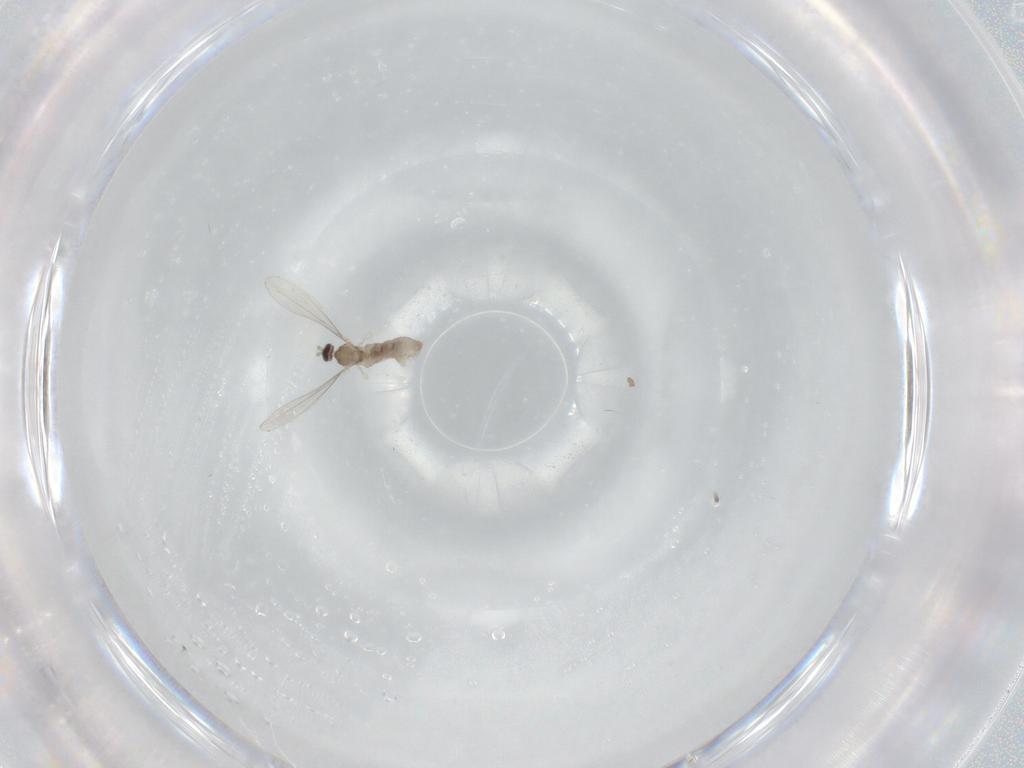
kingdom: Animalia
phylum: Arthropoda
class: Insecta
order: Diptera
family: Cecidomyiidae
